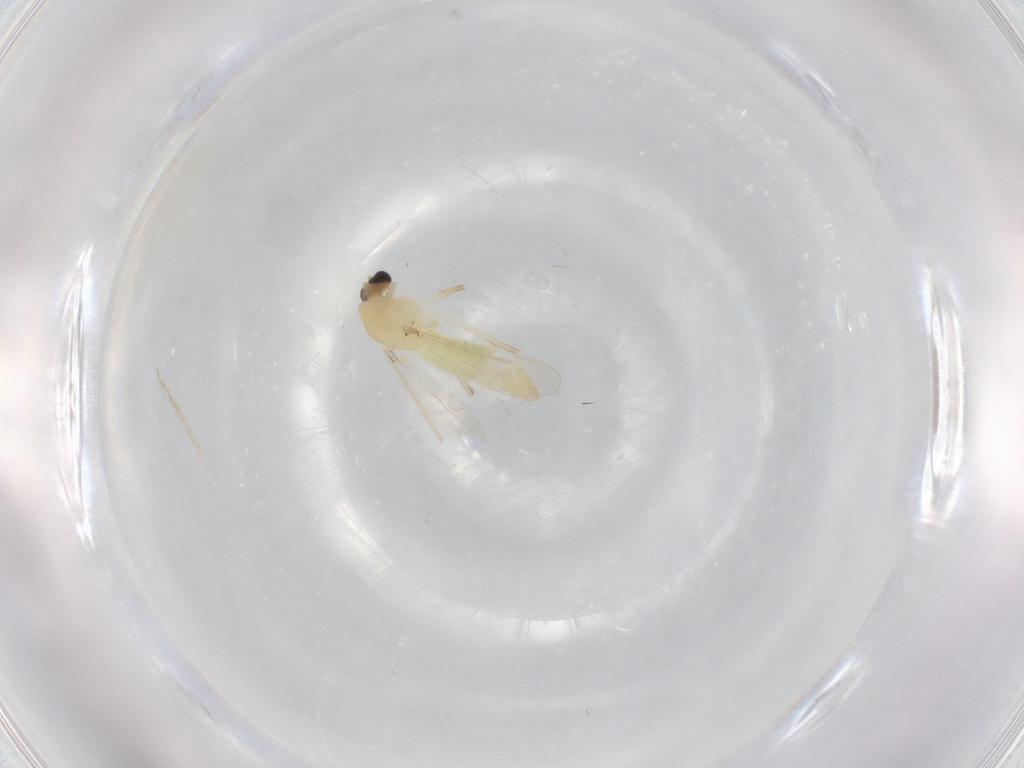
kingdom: Animalia
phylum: Arthropoda
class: Insecta
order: Diptera
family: Chironomidae
